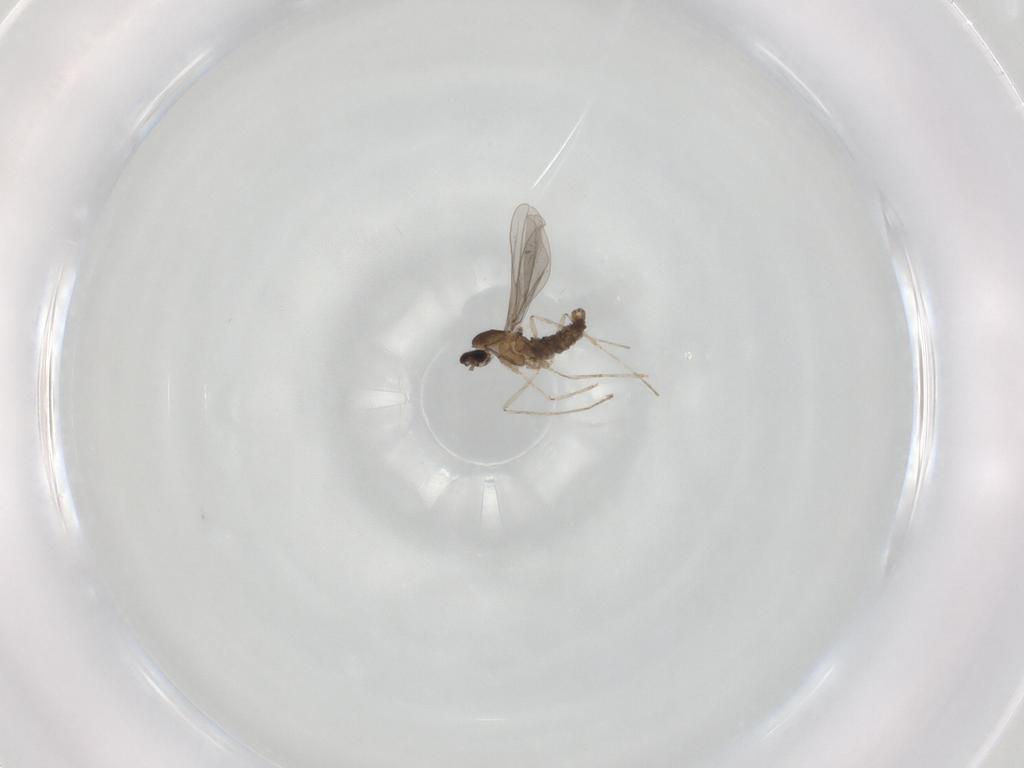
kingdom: Animalia
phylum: Arthropoda
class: Insecta
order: Diptera
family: Cecidomyiidae
